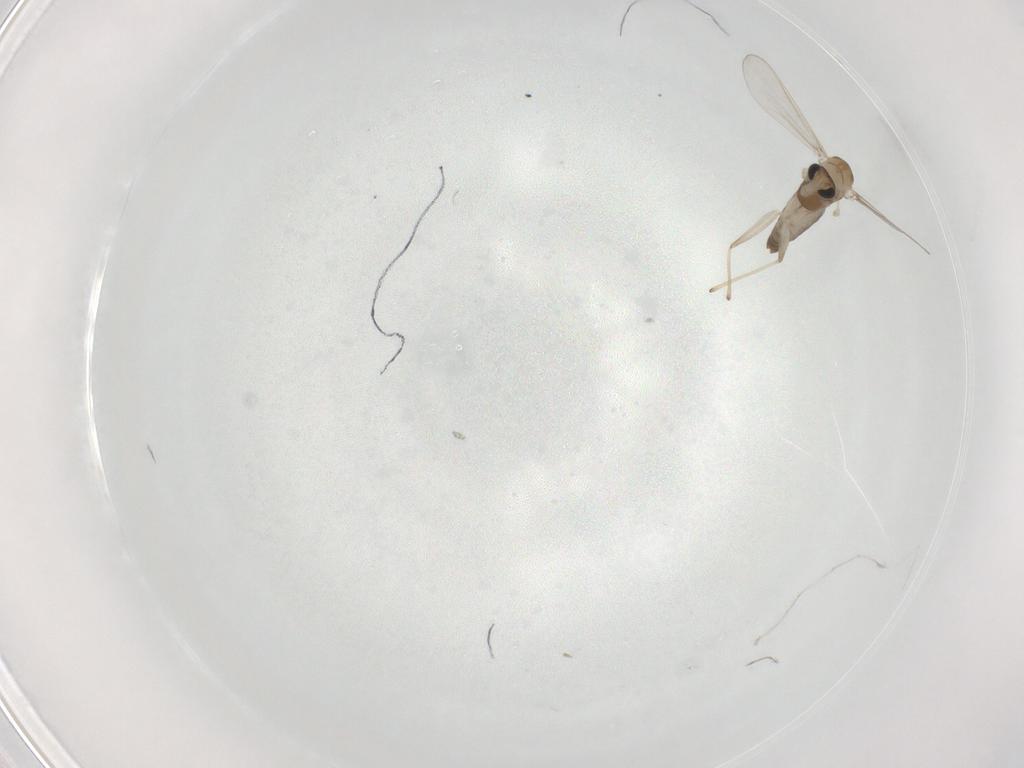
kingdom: Animalia
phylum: Arthropoda
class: Insecta
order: Diptera
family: Chironomidae
